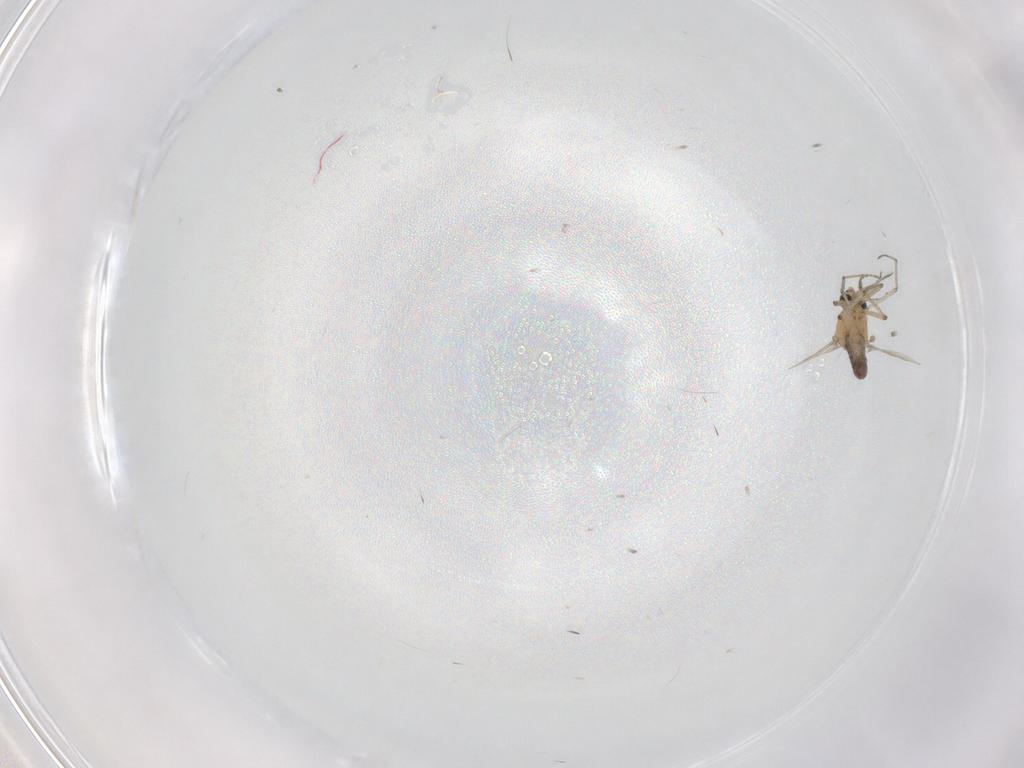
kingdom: Animalia
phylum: Arthropoda
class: Insecta
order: Diptera
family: Ceratopogonidae
